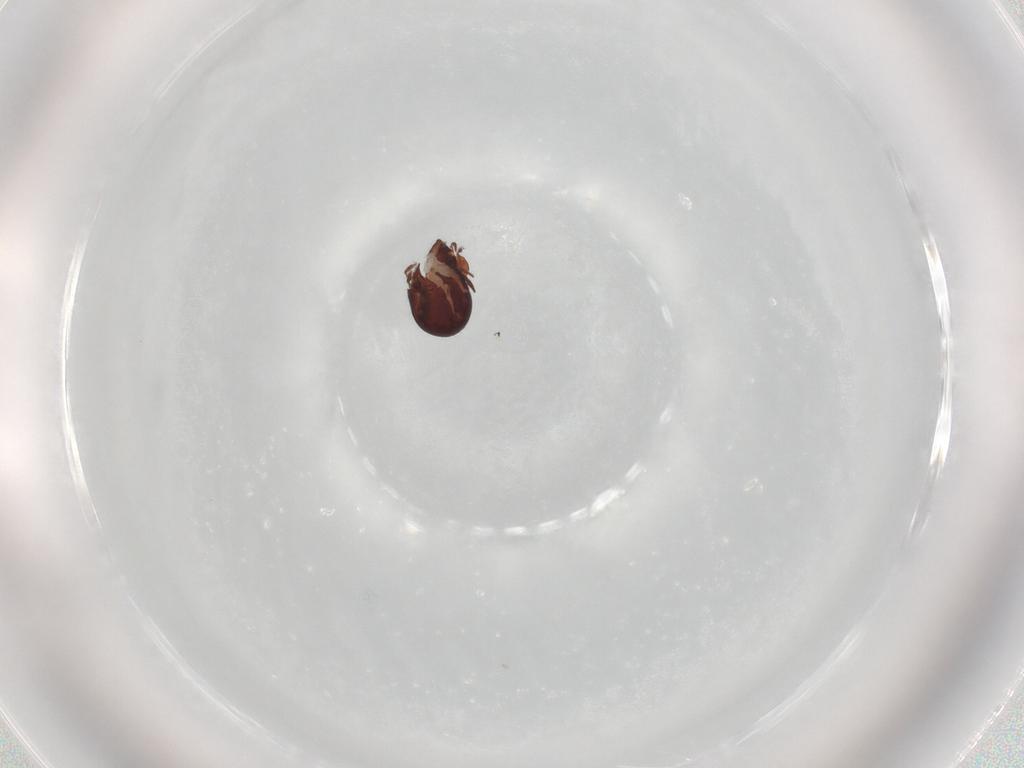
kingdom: Animalia
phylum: Arthropoda
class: Arachnida
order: Sarcoptiformes
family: Humerobatidae
